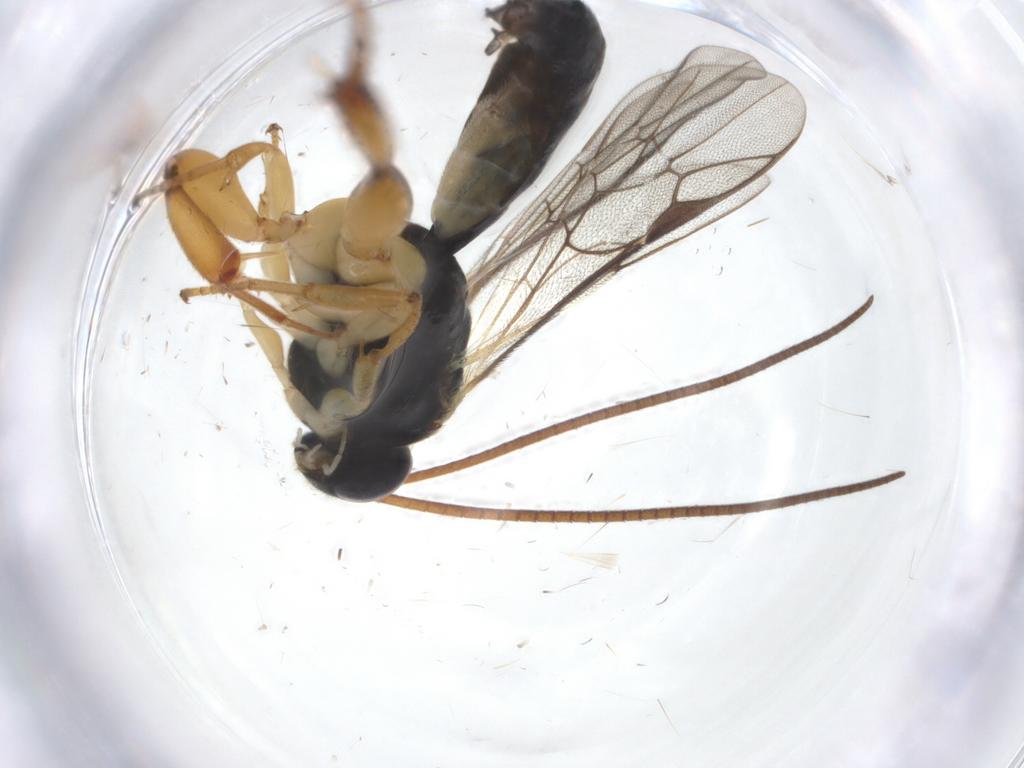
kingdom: Animalia
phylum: Arthropoda
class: Insecta
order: Hymenoptera
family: Ichneumonidae
